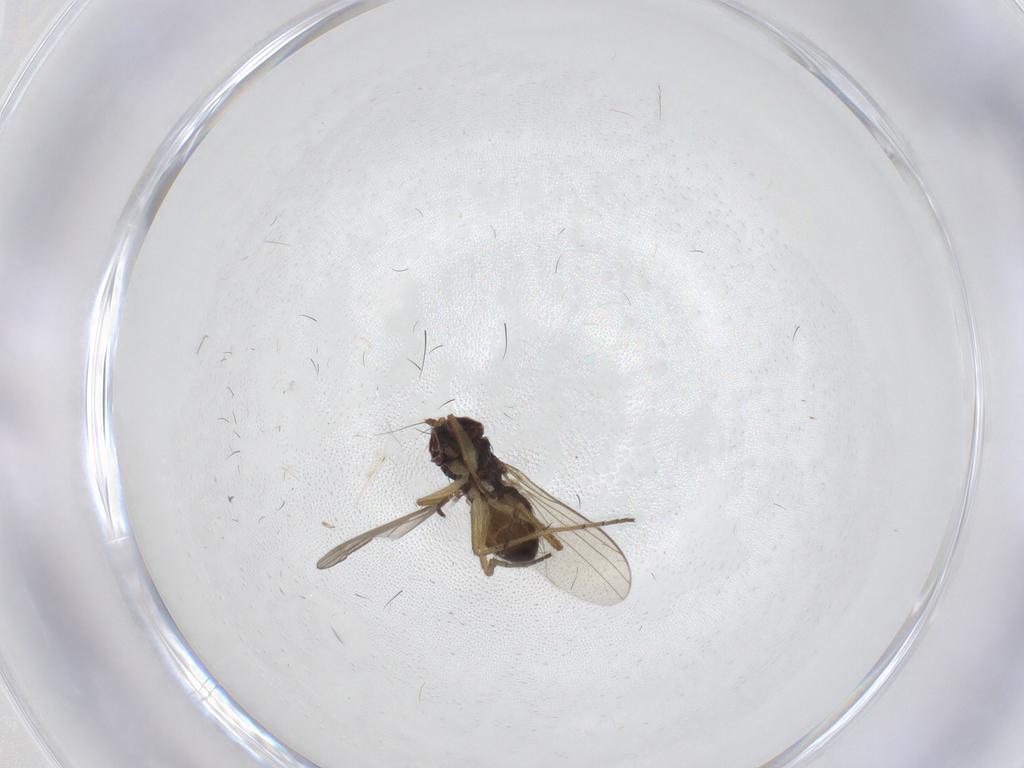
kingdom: Animalia
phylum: Arthropoda
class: Insecta
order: Diptera
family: Dolichopodidae
